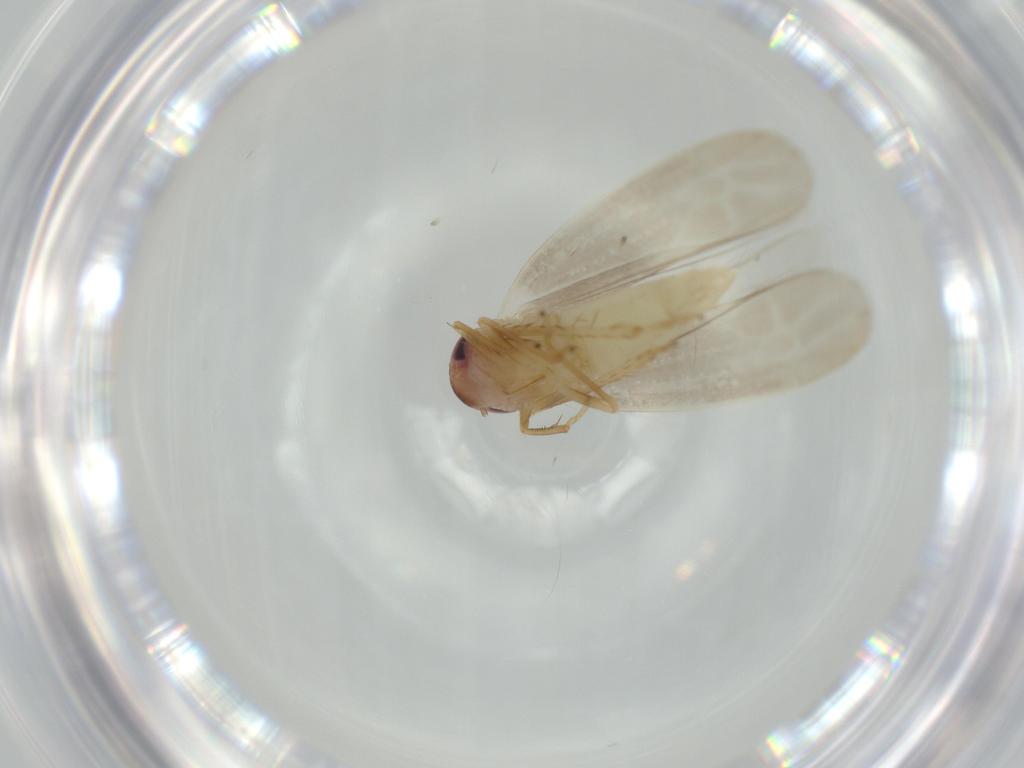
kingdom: Animalia
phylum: Arthropoda
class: Insecta
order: Hemiptera
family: Cicadellidae
